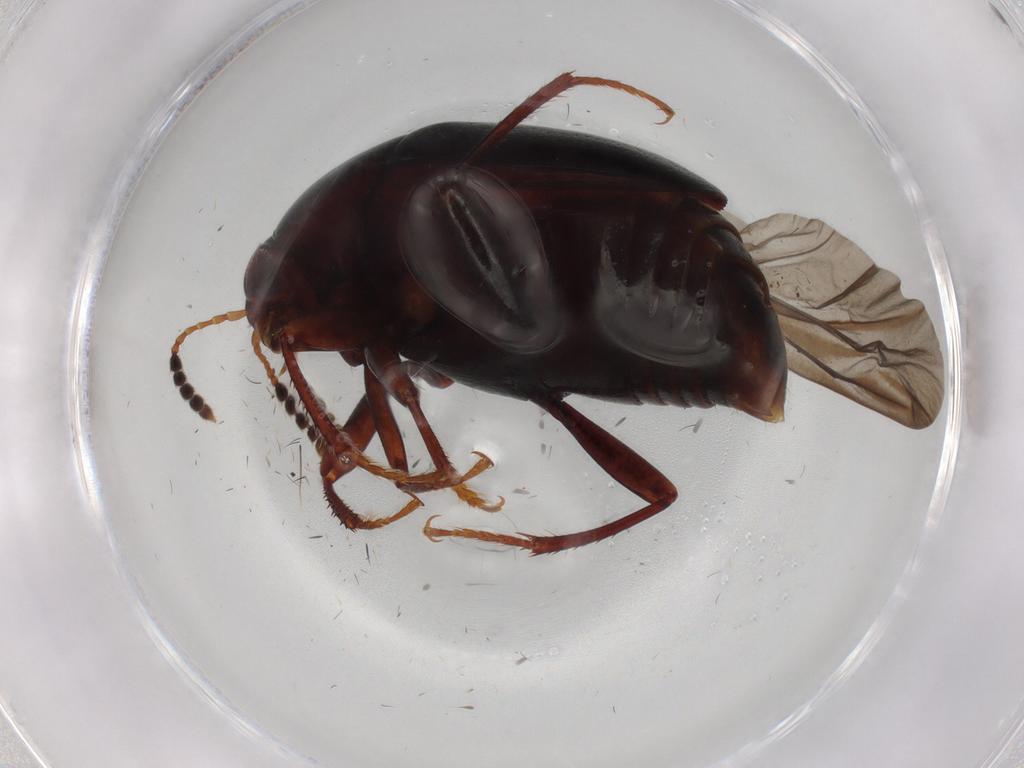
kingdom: Animalia
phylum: Arthropoda
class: Insecta
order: Coleoptera
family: Staphylinidae
